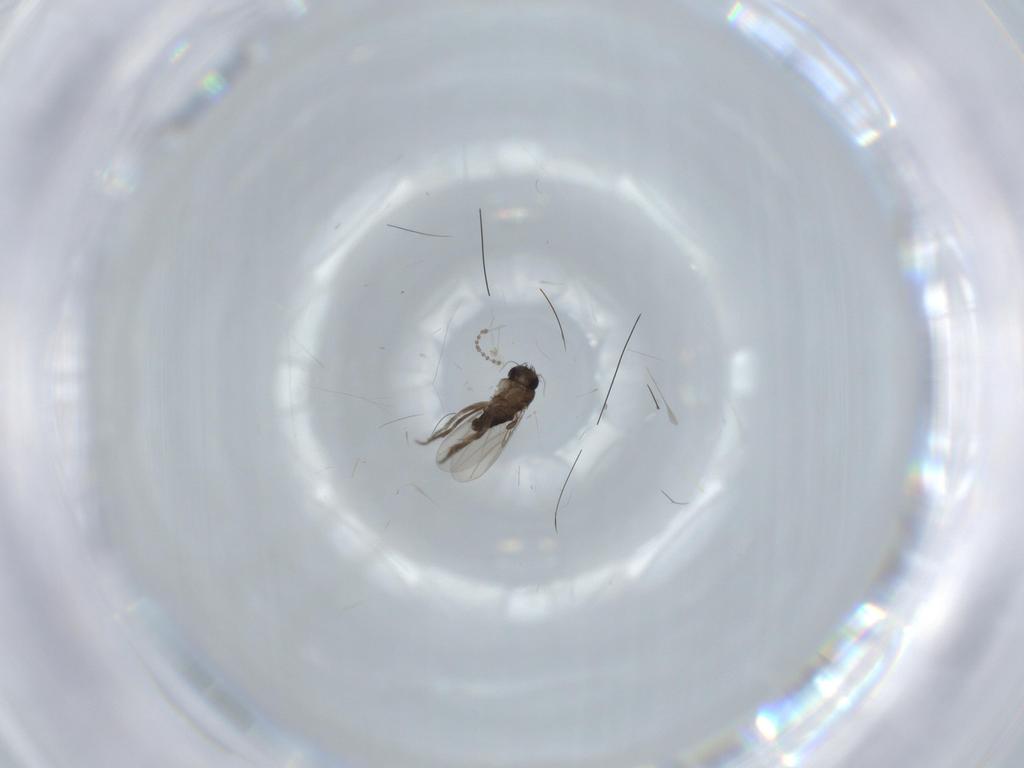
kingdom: Animalia
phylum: Arthropoda
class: Insecta
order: Diptera
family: Phoridae
